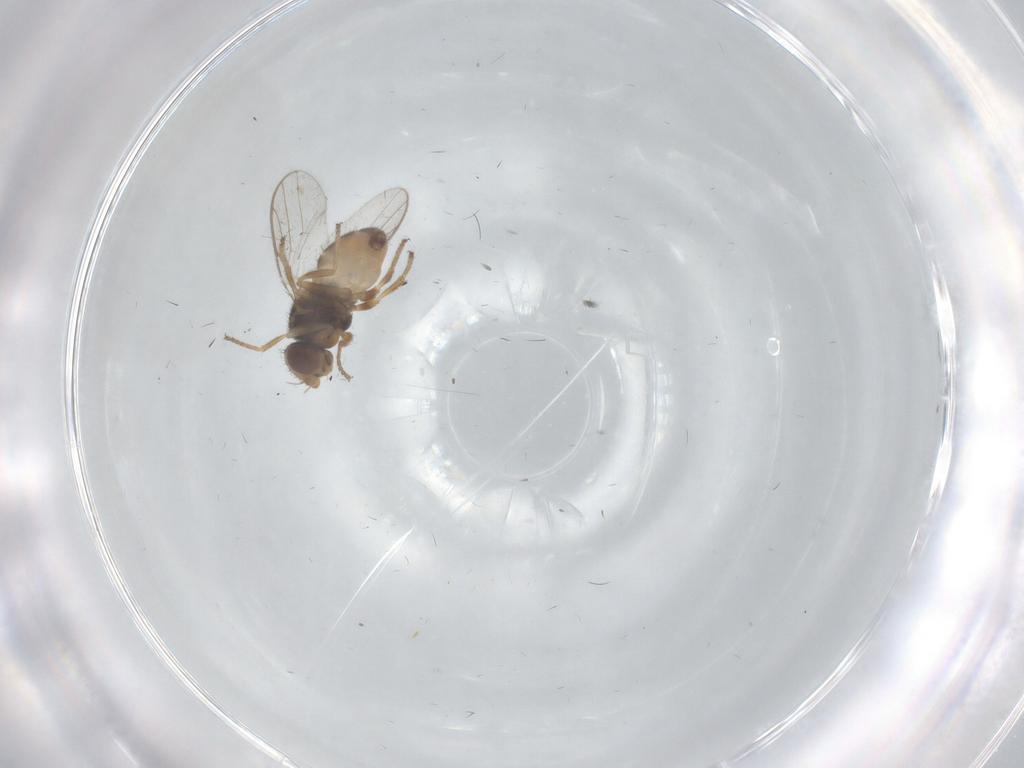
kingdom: Animalia
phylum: Arthropoda
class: Insecta
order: Diptera
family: Chloropidae
